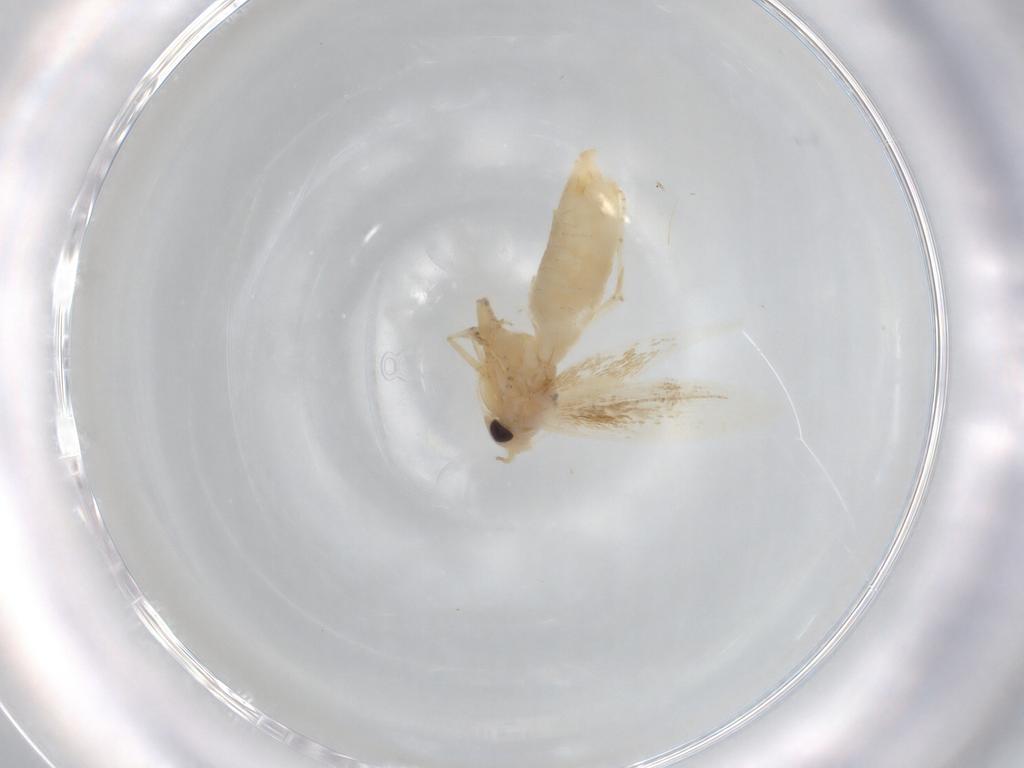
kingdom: Animalia
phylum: Arthropoda
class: Insecta
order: Lepidoptera
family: Bucculatricidae
